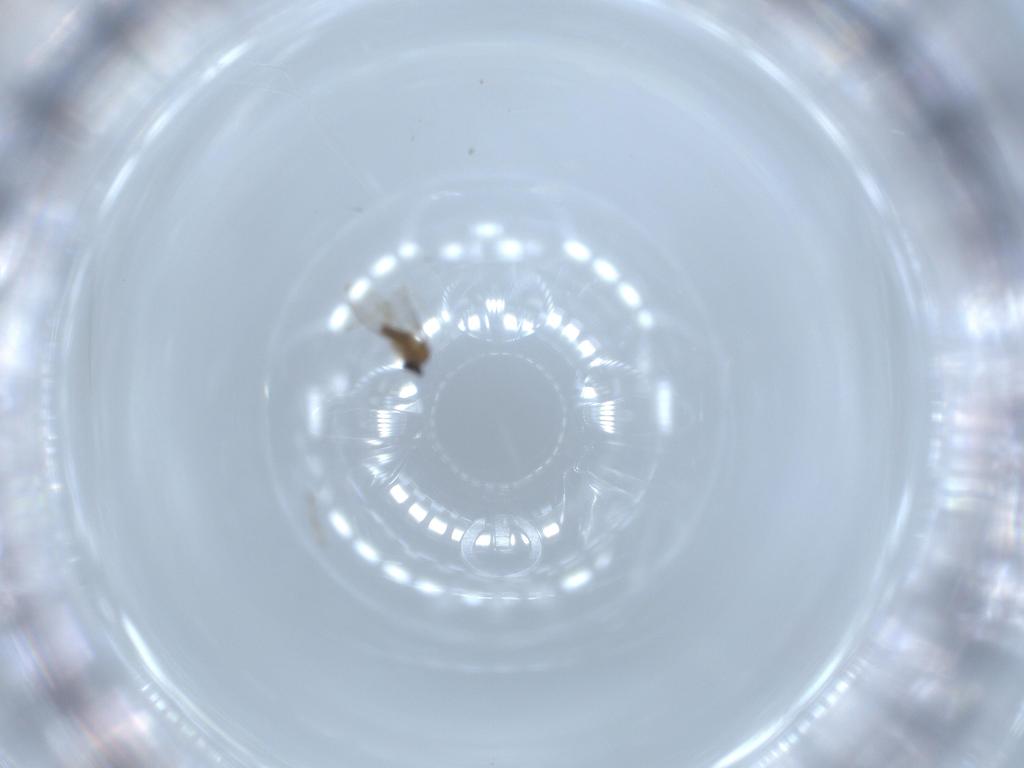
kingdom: Animalia
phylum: Arthropoda
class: Insecta
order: Diptera
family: Cecidomyiidae
